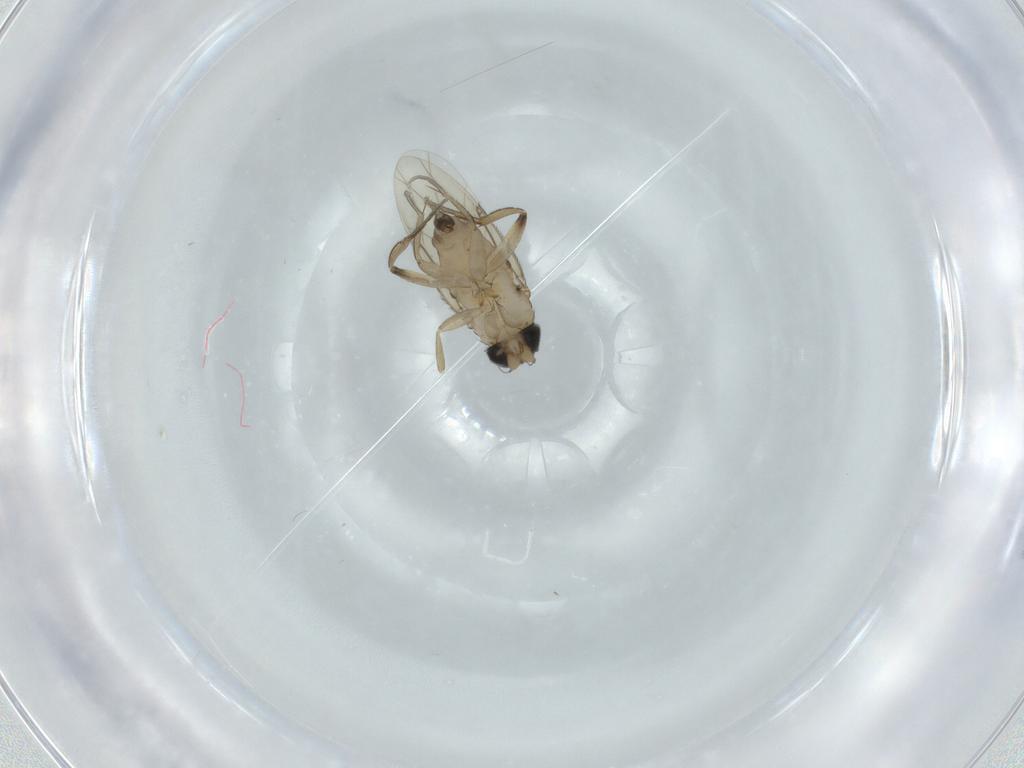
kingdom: Animalia
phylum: Arthropoda
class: Insecta
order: Diptera
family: Phoridae
